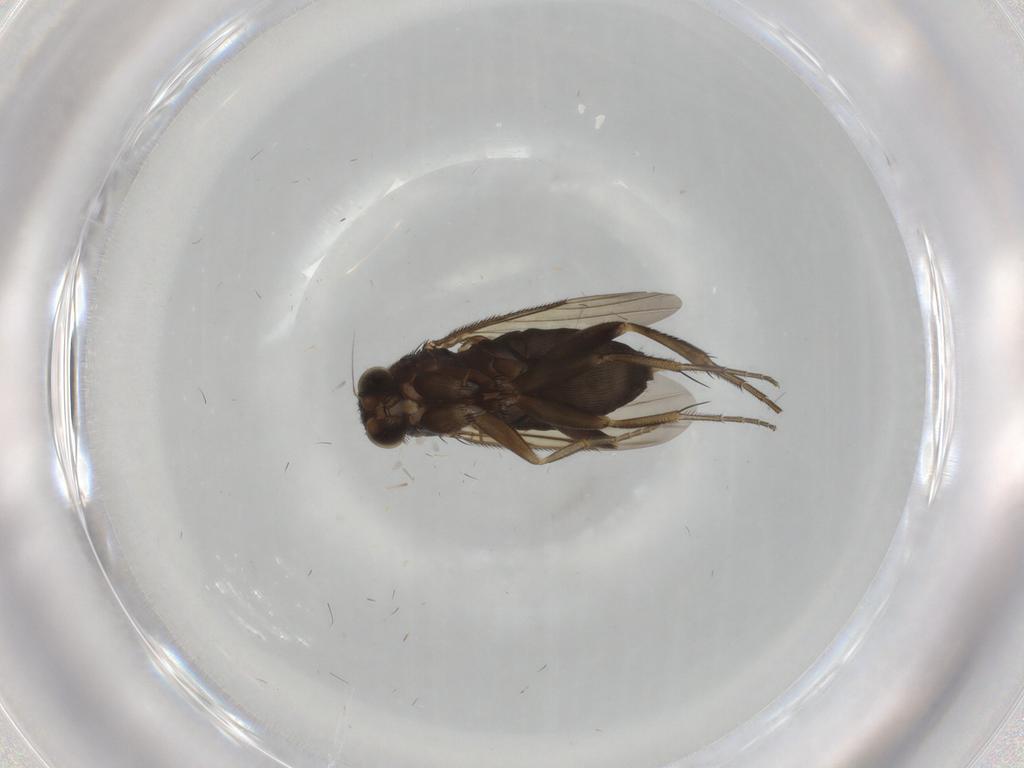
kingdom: Animalia
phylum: Arthropoda
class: Insecta
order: Diptera
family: Phoridae
